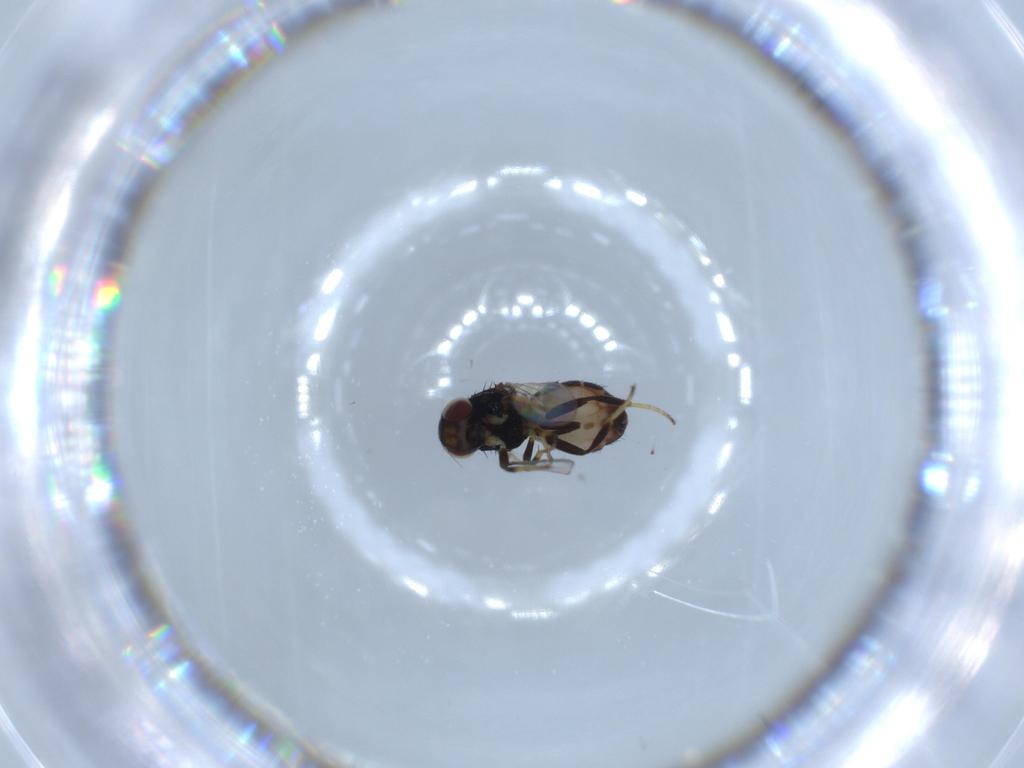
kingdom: Animalia
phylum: Arthropoda
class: Insecta
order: Diptera
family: Chloropidae
